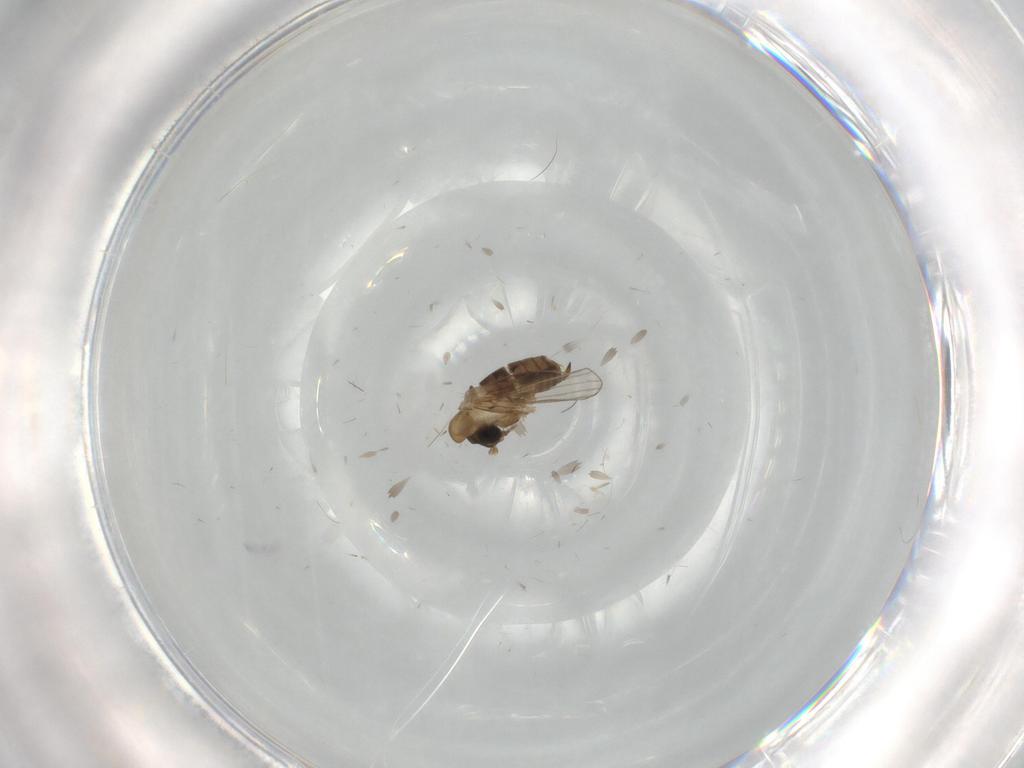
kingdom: Animalia
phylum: Arthropoda
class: Insecta
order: Diptera
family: Psychodidae
